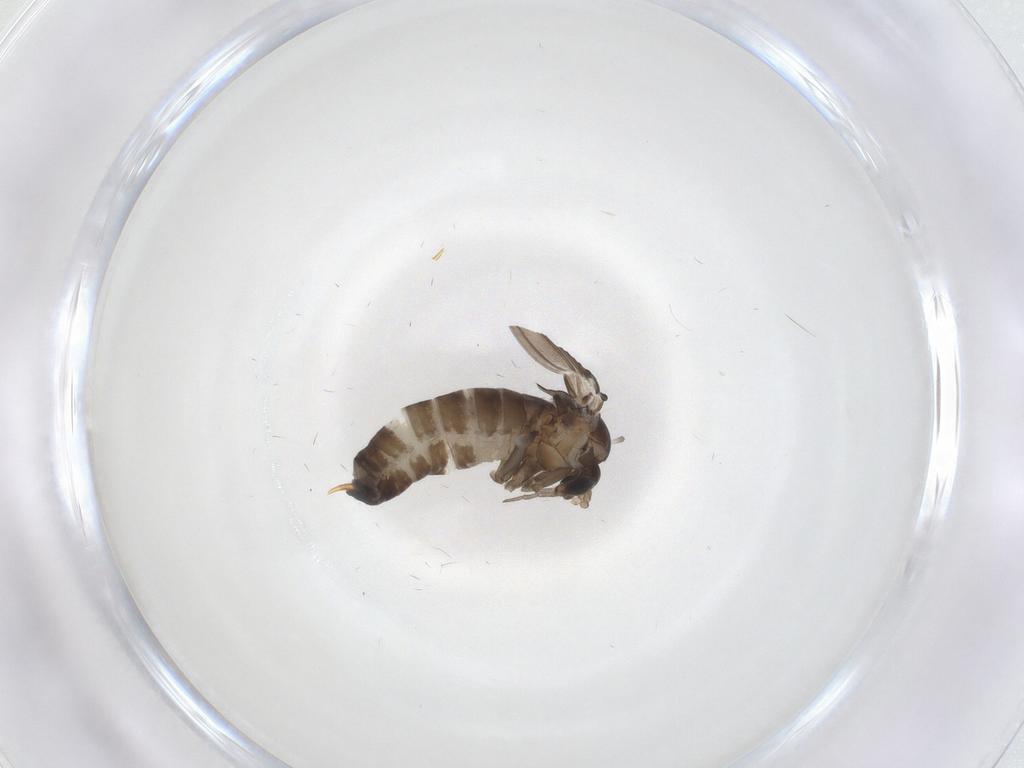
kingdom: Animalia
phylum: Arthropoda
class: Insecta
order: Diptera
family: Psychodidae
